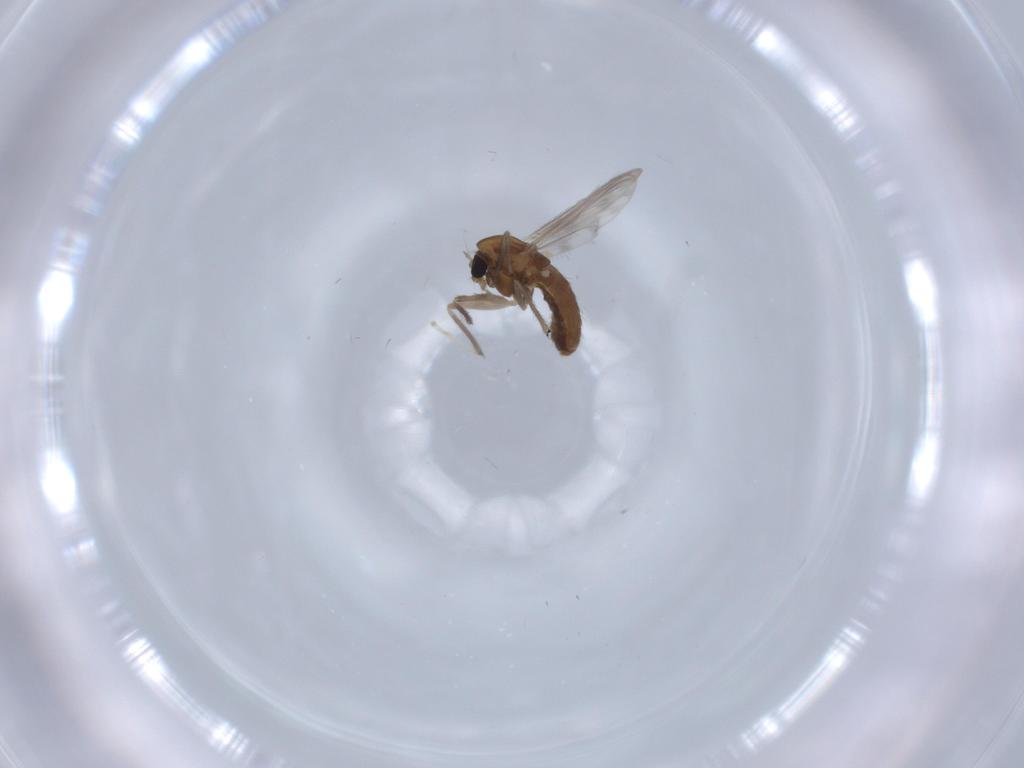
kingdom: Animalia
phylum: Arthropoda
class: Insecta
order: Diptera
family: Chironomidae
